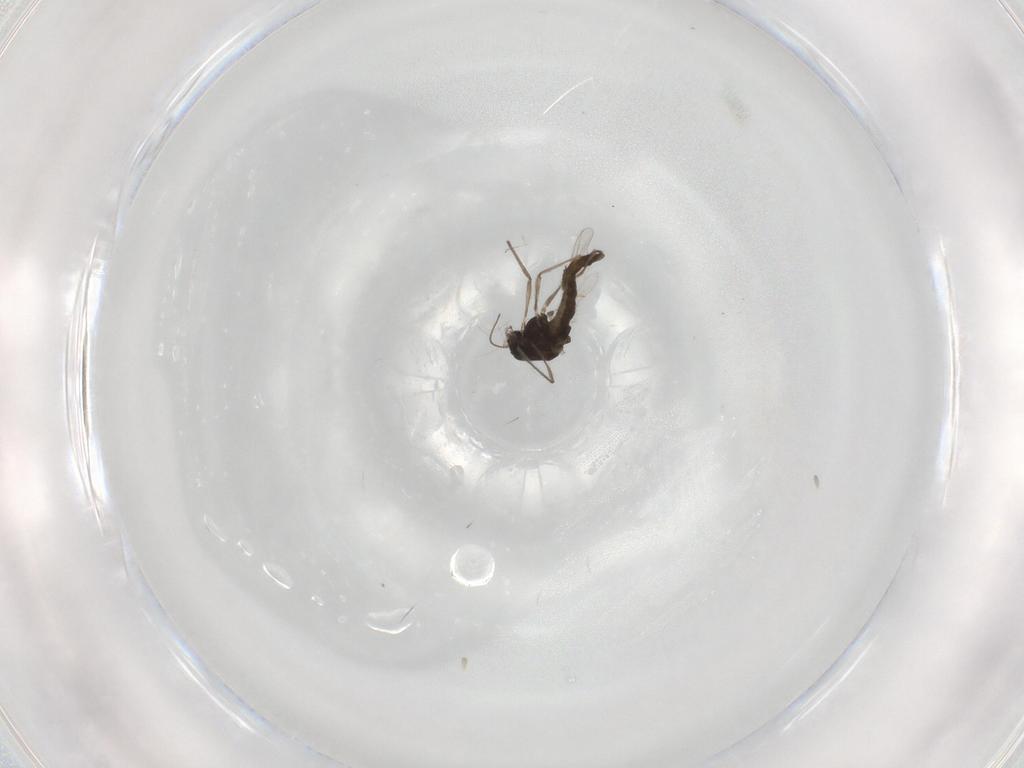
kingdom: Animalia
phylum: Arthropoda
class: Insecta
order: Diptera
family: Chironomidae
